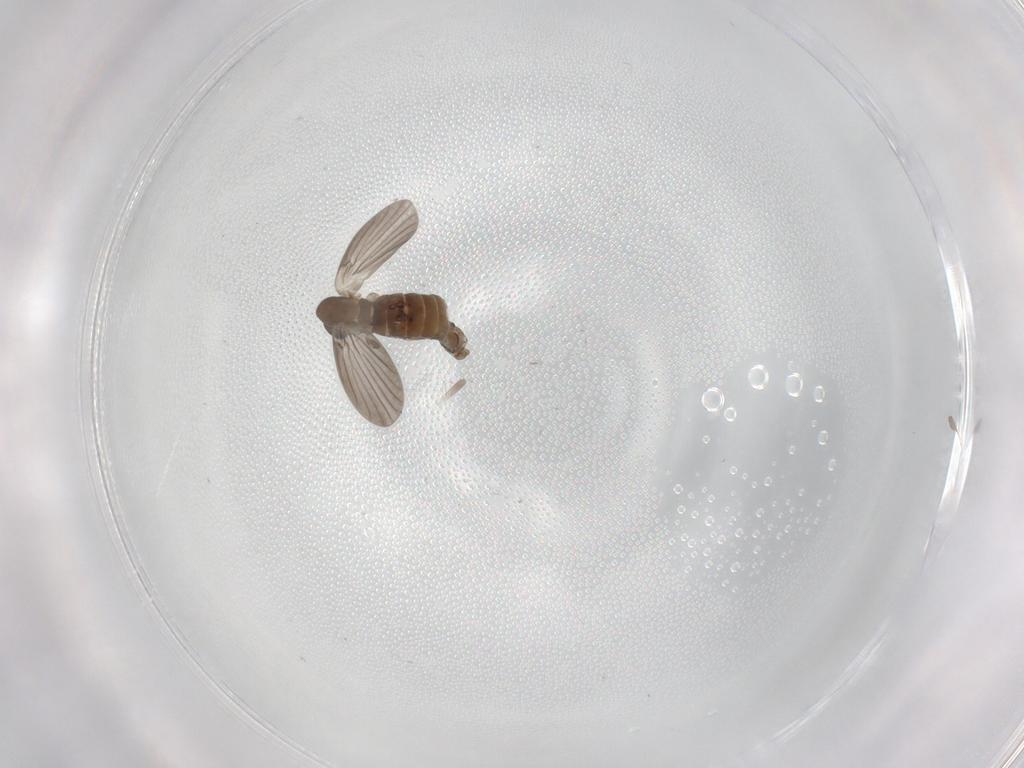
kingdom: Animalia
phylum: Arthropoda
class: Insecta
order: Diptera
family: Chironomidae
